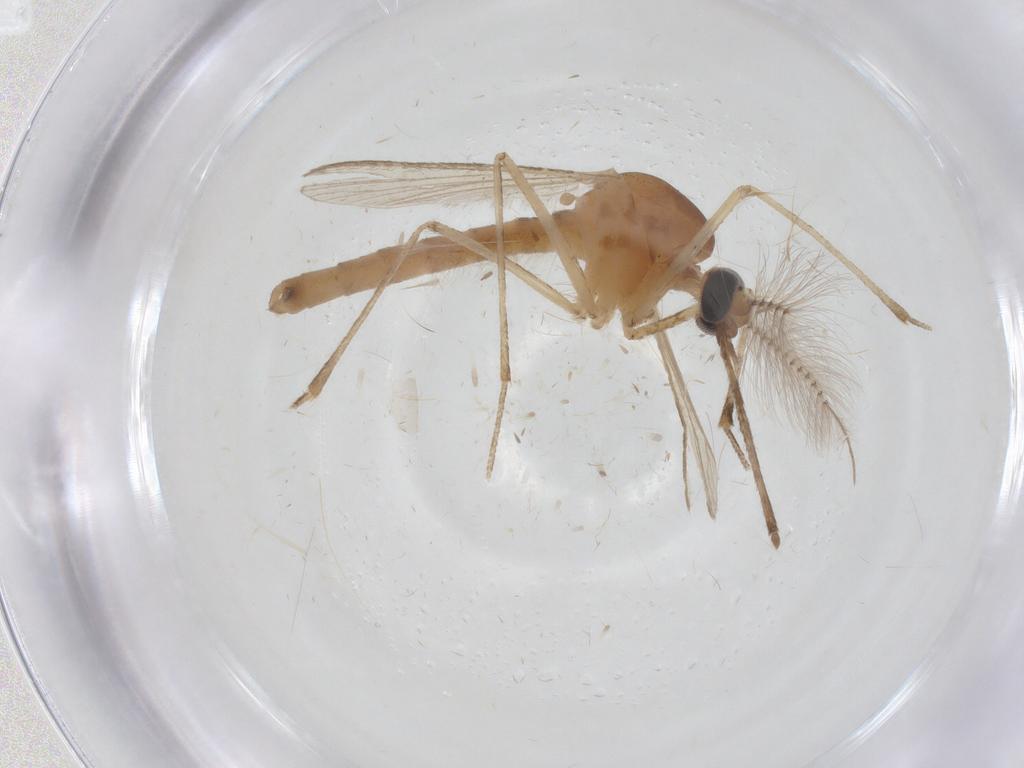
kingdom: Animalia
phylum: Arthropoda
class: Insecta
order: Diptera
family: Culicidae
